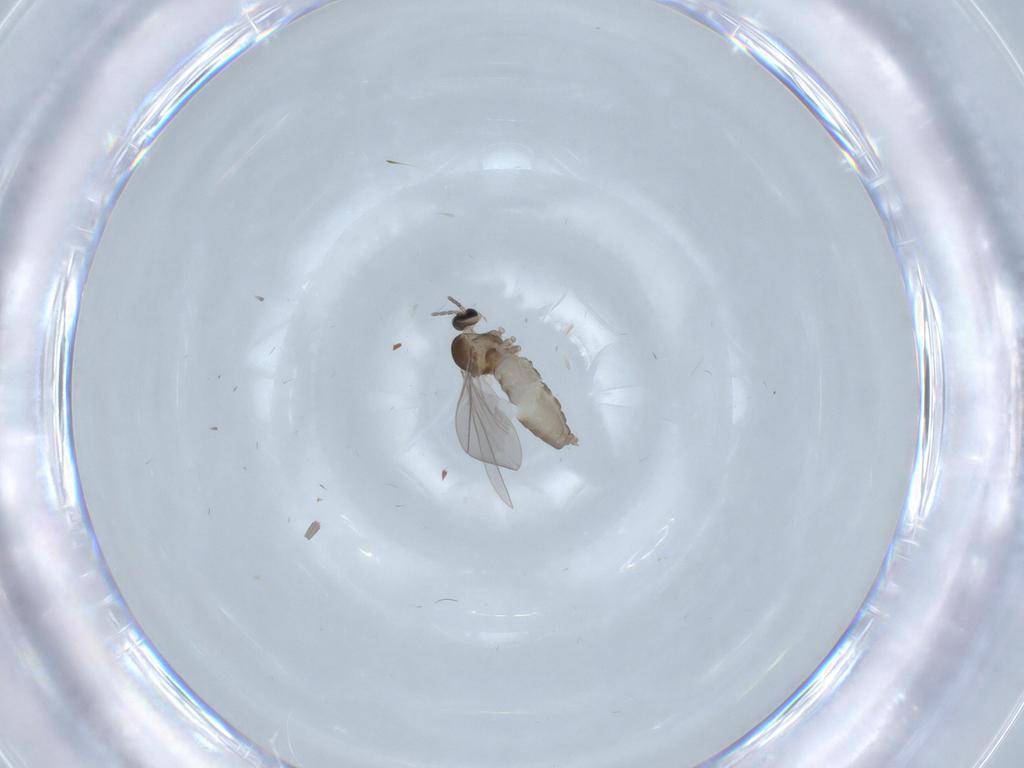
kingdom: Animalia
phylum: Arthropoda
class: Insecta
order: Diptera
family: Cecidomyiidae
